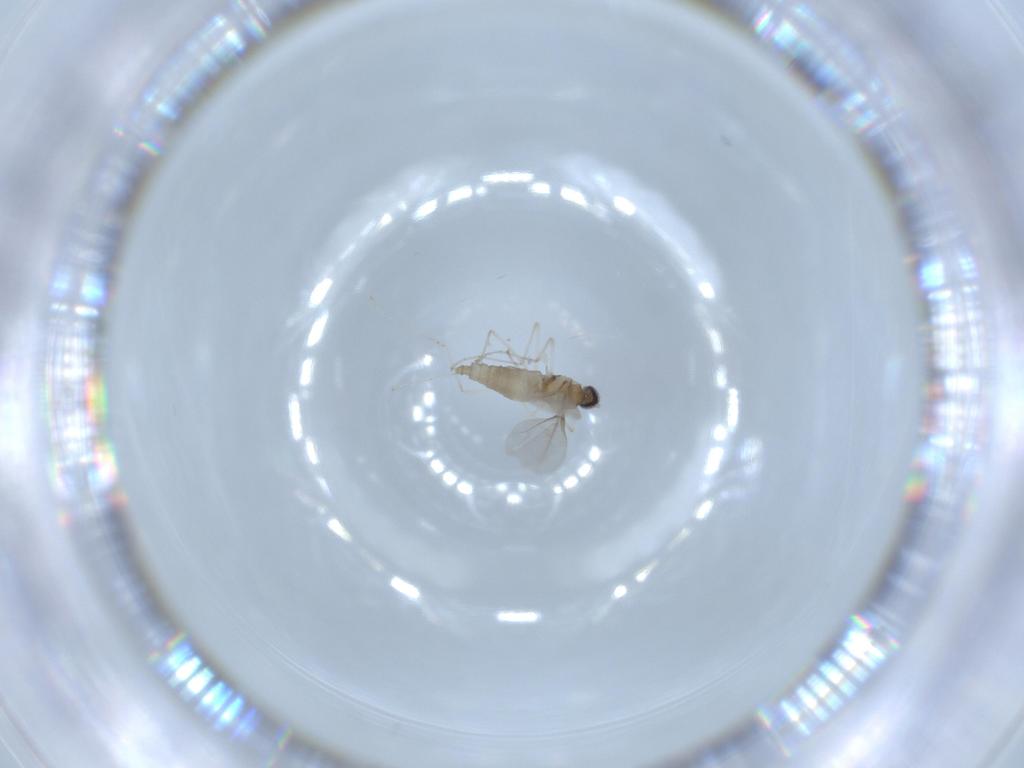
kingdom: Animalia
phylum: Arthropoda
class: Insecta
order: Diptera
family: Cecidomyiidae
